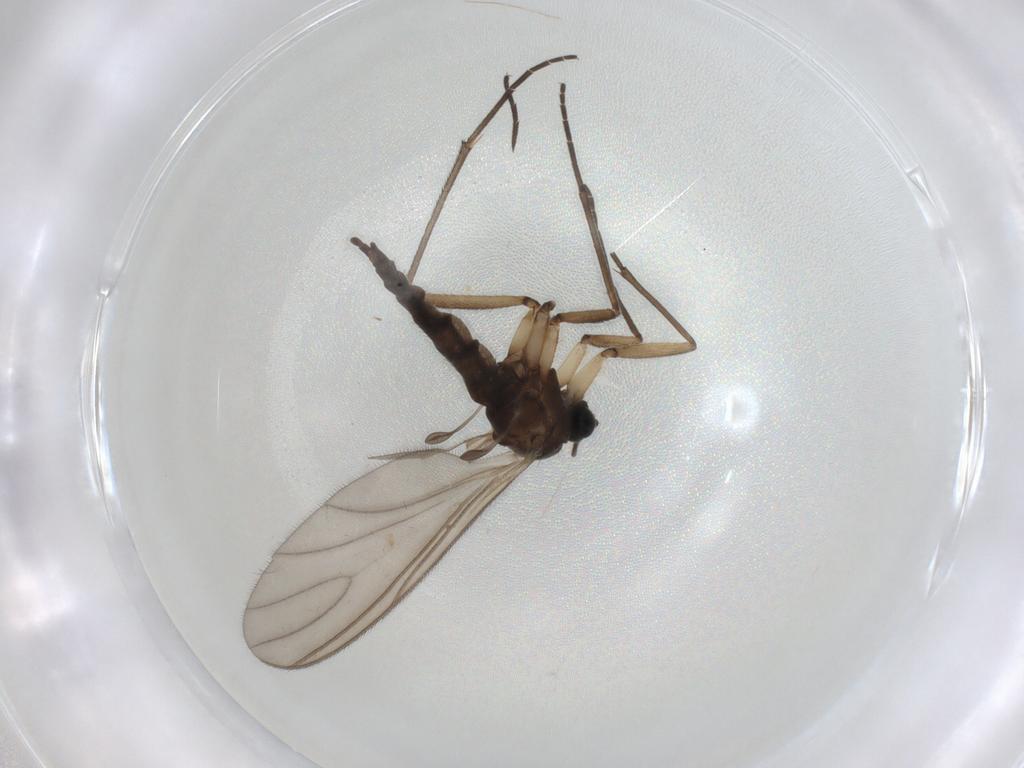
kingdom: Animalia
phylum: Arthropoda
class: Insecta
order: Diptera
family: Sciaridae
